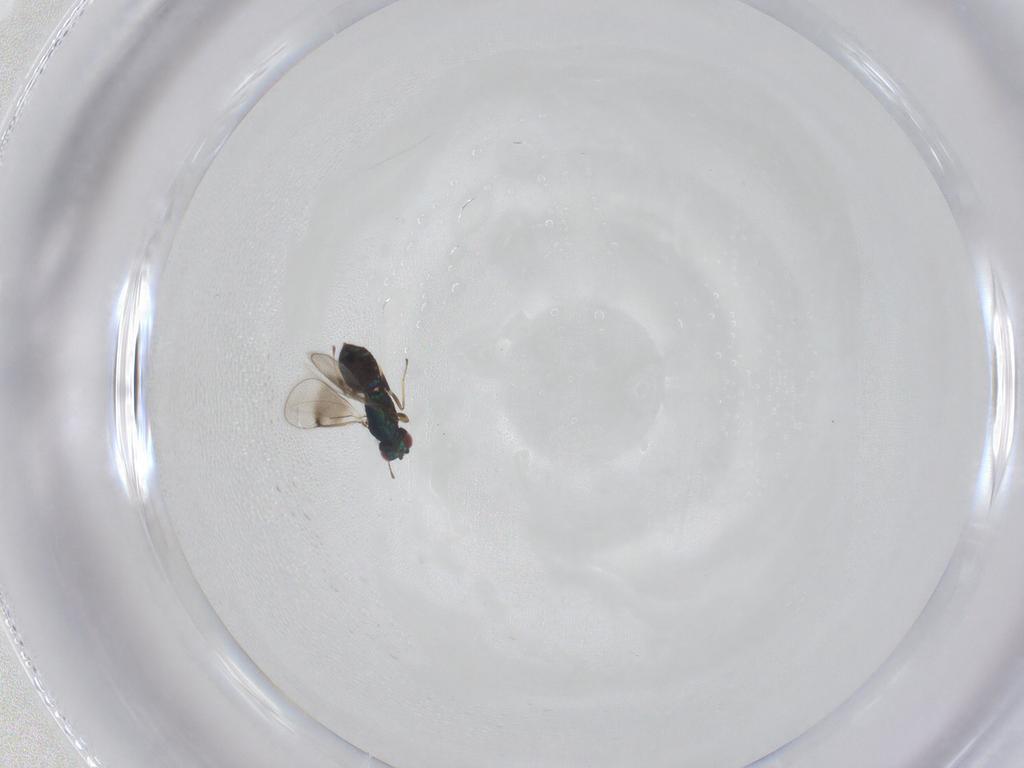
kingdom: Animalia
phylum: Arthropoda
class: Insecta
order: Hymenoptera
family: Eulophidae
